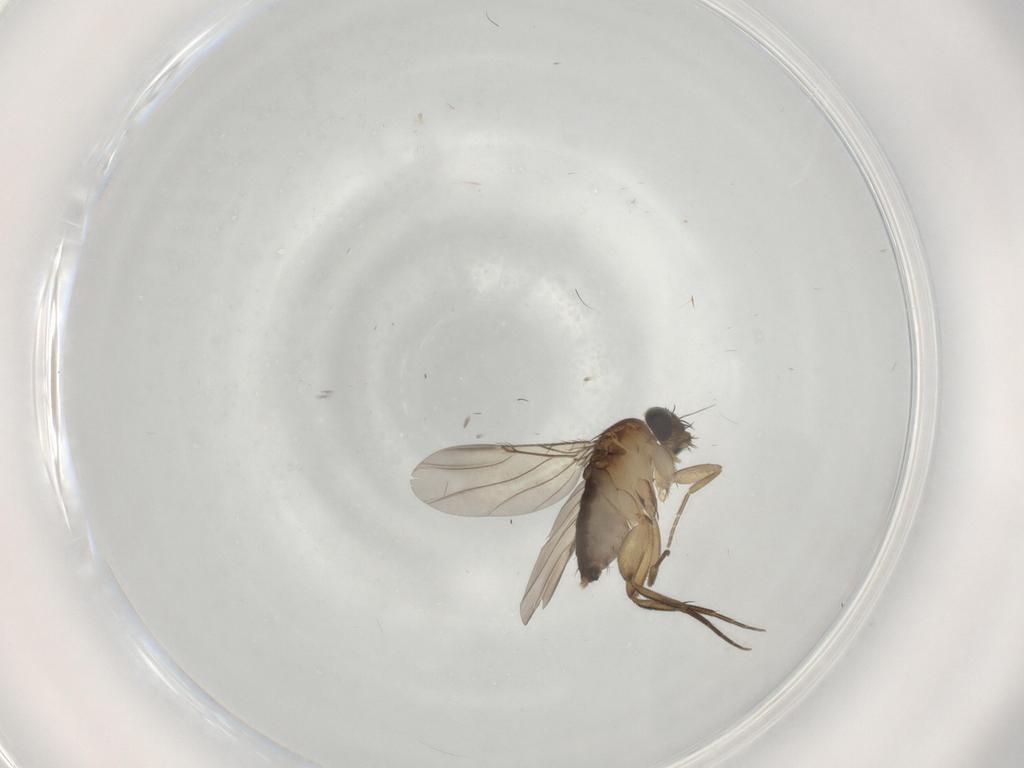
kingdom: Animalia
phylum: Arthropoda
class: Insecta
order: Diptera
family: Phoridae
